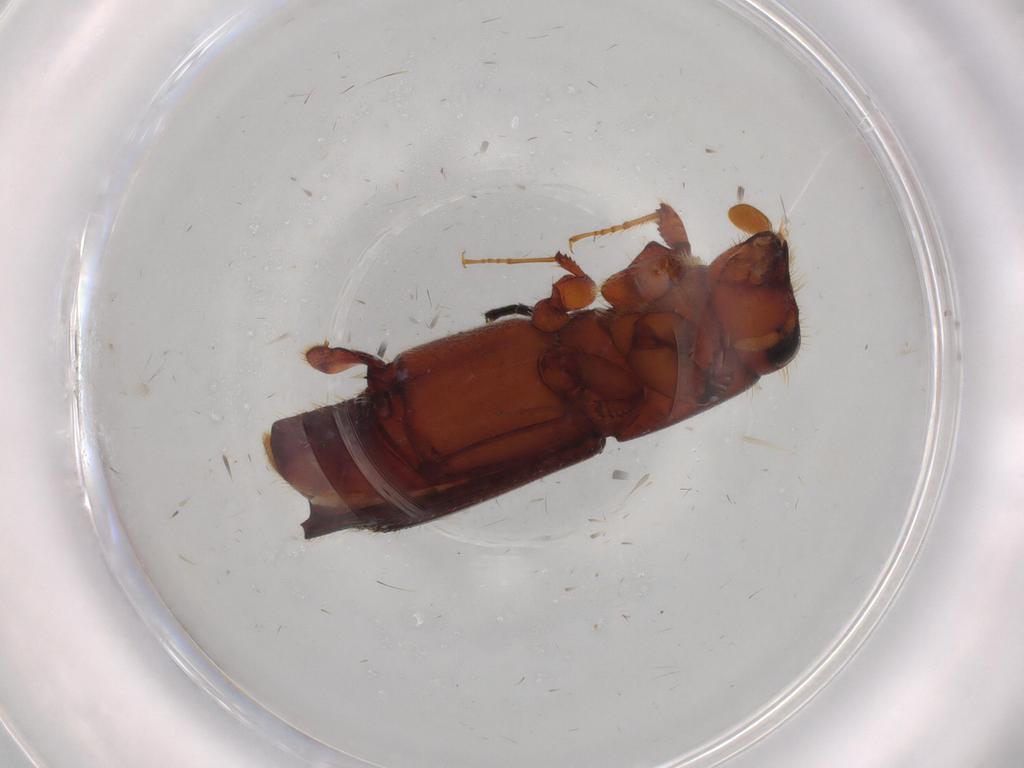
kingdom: Animalia
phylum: Arthropoda
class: Insecta
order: Coleoptera
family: Curculionidae
